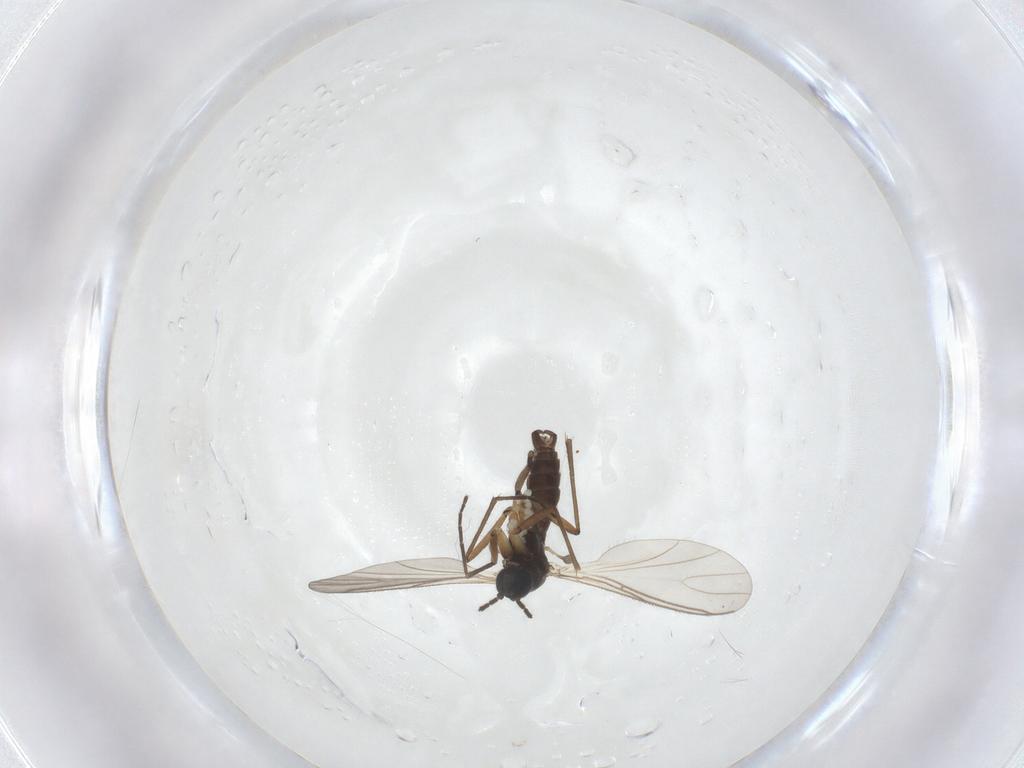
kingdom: Animalia
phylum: Arthropoda
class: Insecta
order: Diptera
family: Sciaridae
